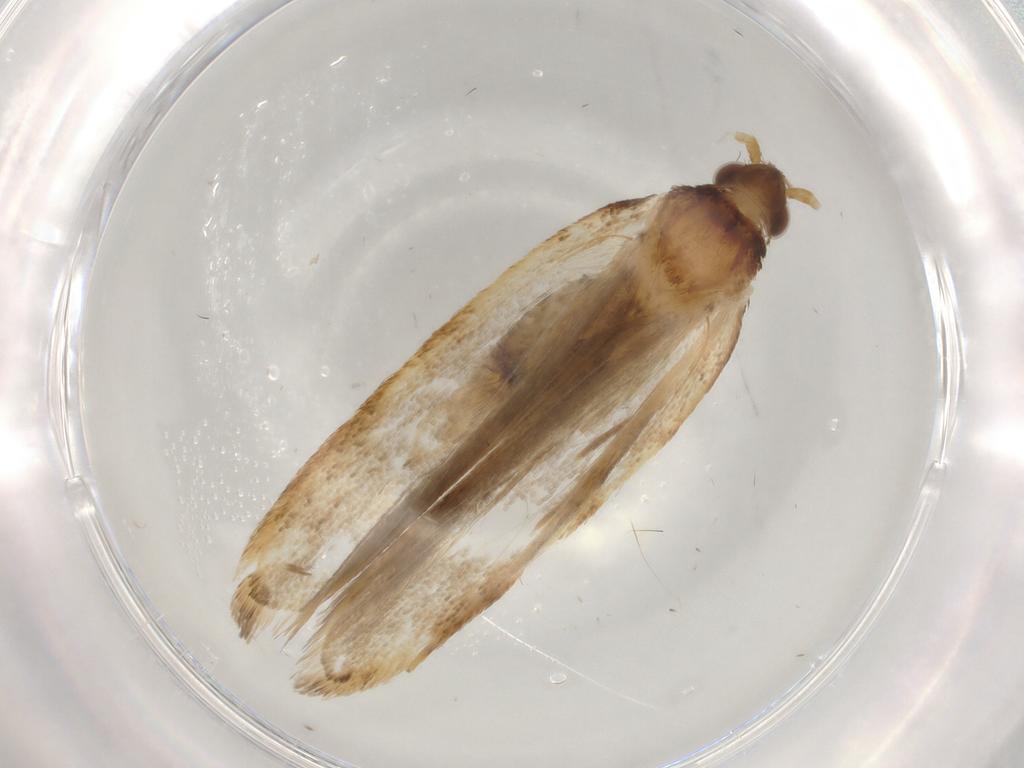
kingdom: Animalia
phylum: Arthropoda
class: Insecta
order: Lepidoptera
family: Lecithoceridae
